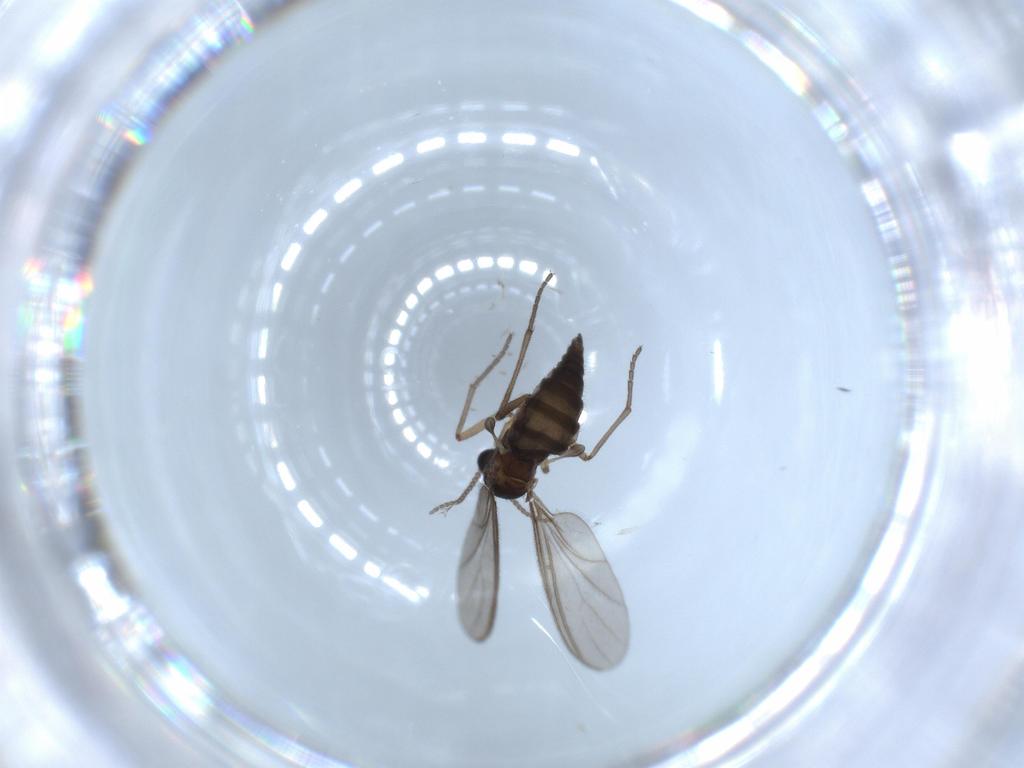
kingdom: Animalia
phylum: Arthropoda
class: Insecta
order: Diptera
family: Sciaridae
